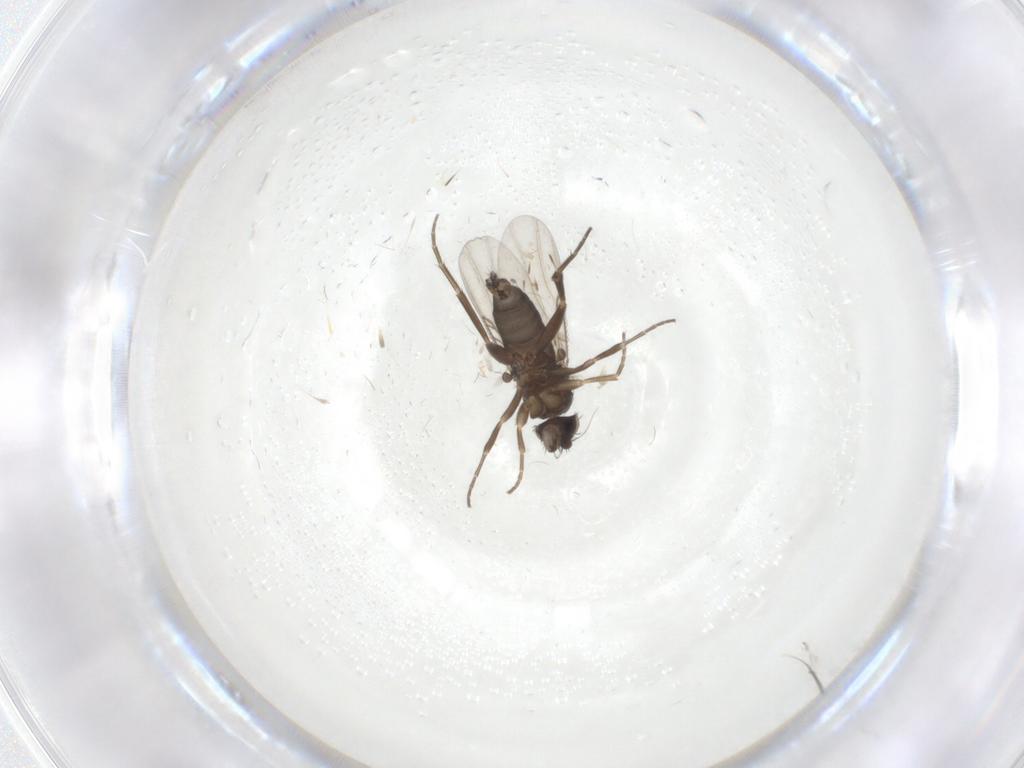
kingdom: Animalia
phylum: Arthropoda
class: Insecta
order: Diptera
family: Phoridae
